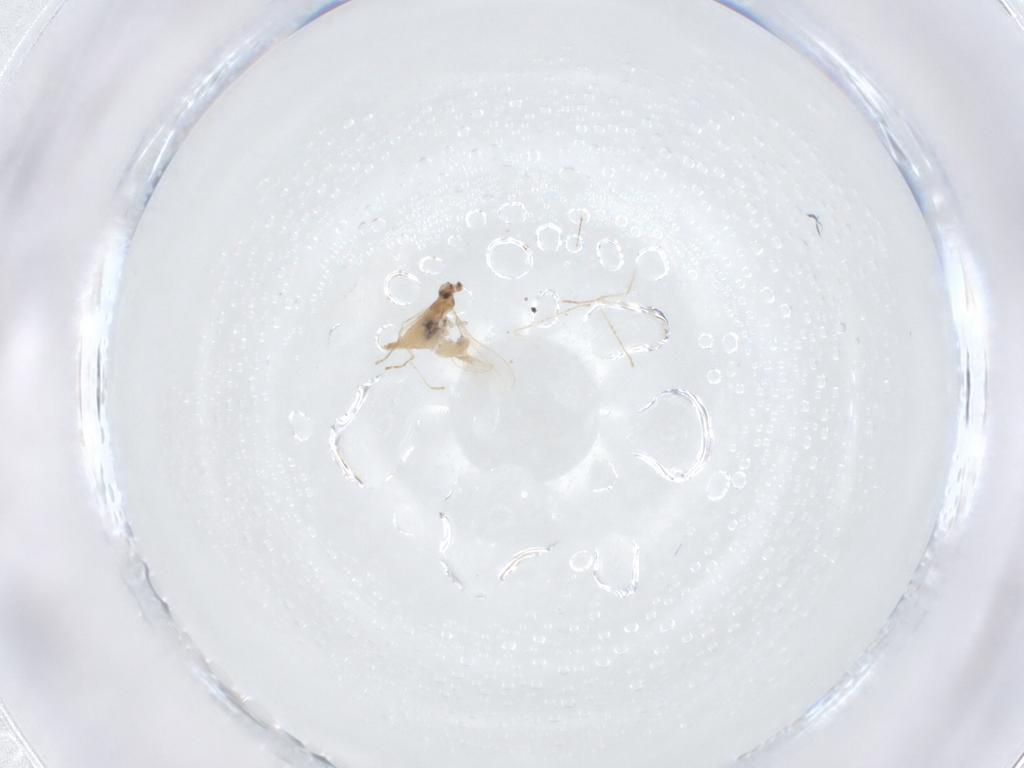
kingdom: Animalia
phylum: Arthropoda
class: Insecta
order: Diptera
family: Cecidomyiidae
